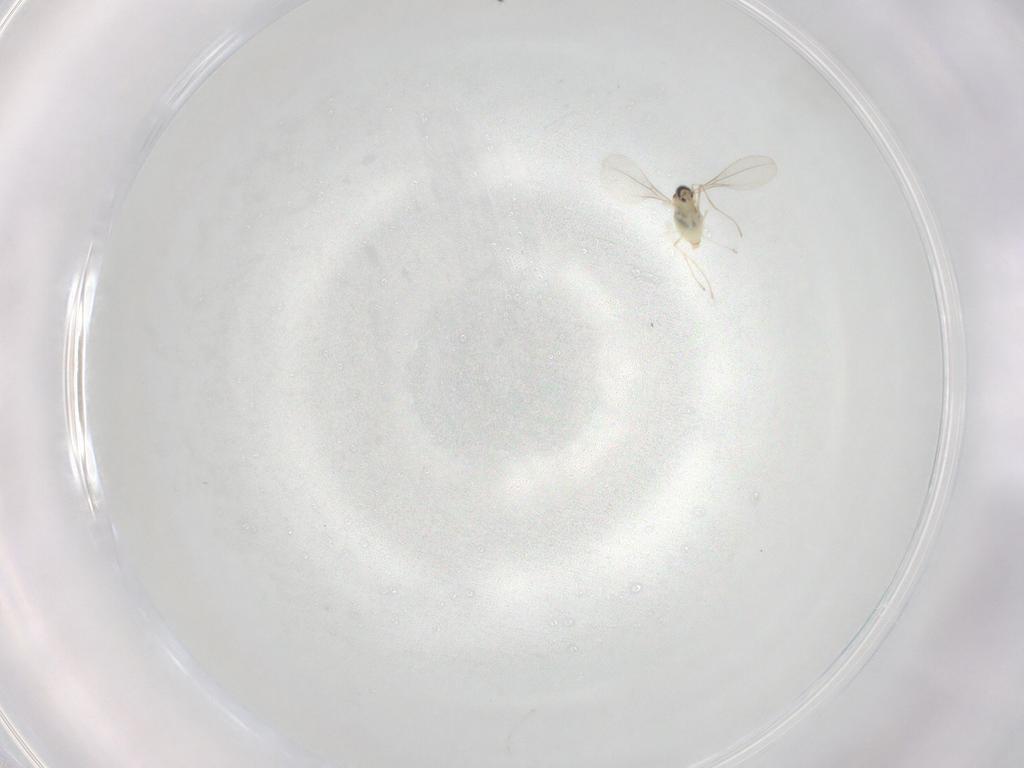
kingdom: Animalia
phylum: Arthropoda
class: Insecta
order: Diptera
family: Cecidomyiidae
